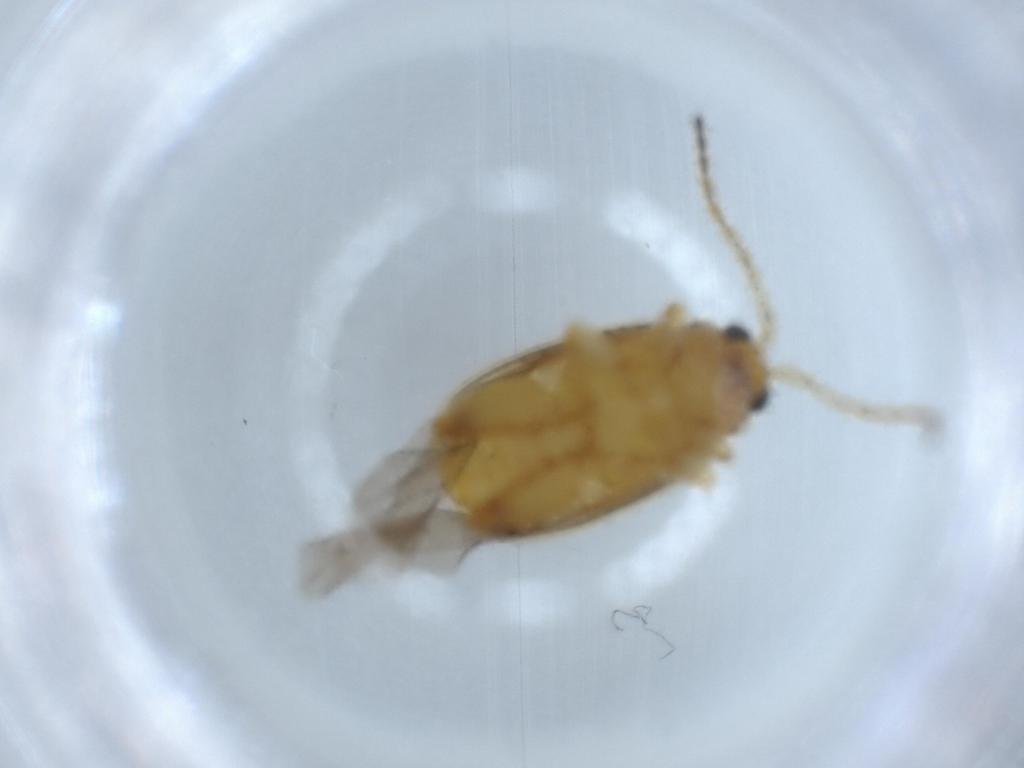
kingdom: Animalia
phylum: Arthropoda
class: Insecta
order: Coleoptera
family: Chrysomelidae
